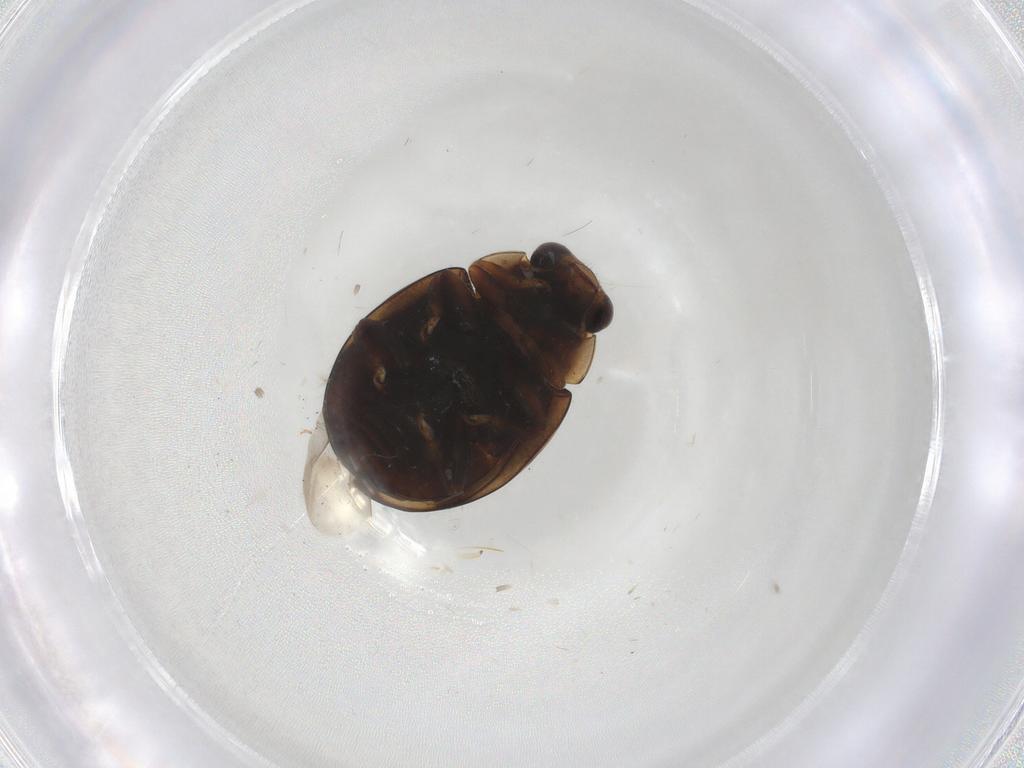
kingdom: Animalia
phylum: Arthropoda
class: Insecta
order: Coleoptera
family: Coccinellidae
